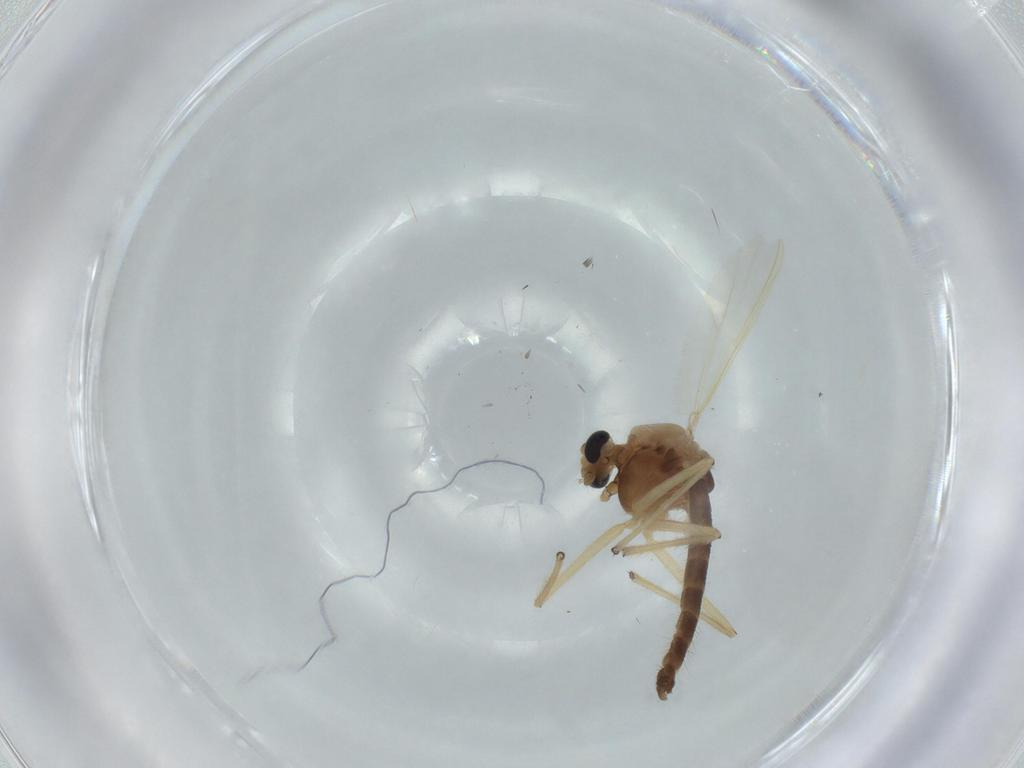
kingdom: Animalia
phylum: Arthropoda
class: Insecta
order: Diptera
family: Chironomidae
